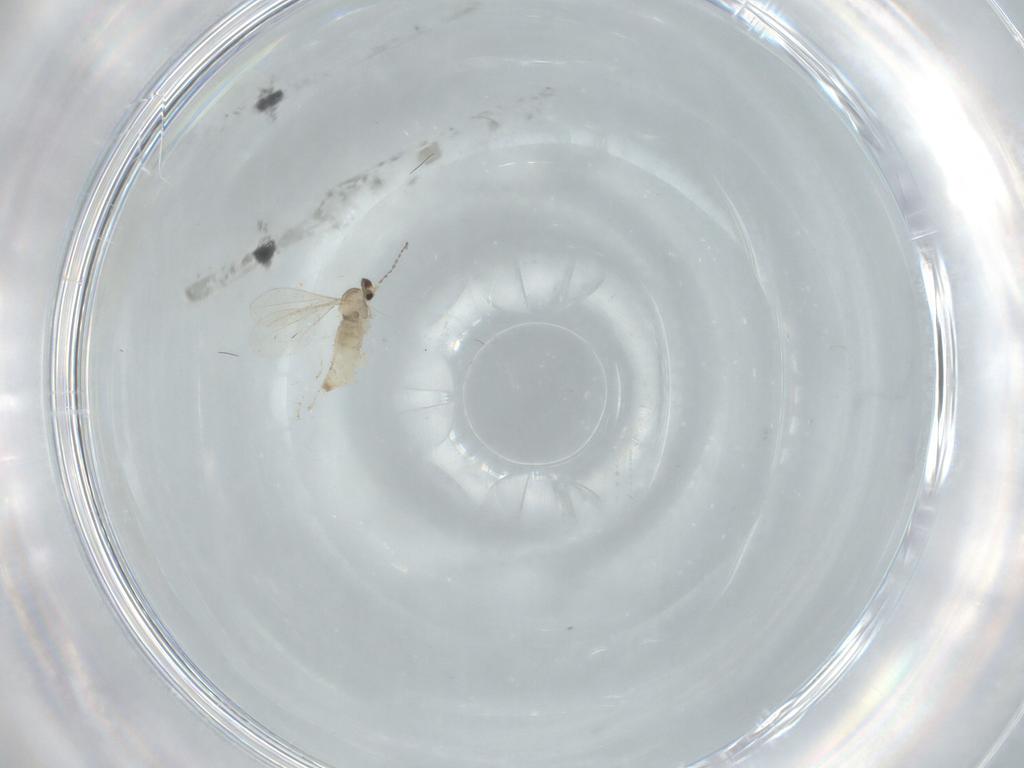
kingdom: Animalia
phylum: Arthropoda
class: Insecta
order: Diptera
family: Cecidomyiidae
